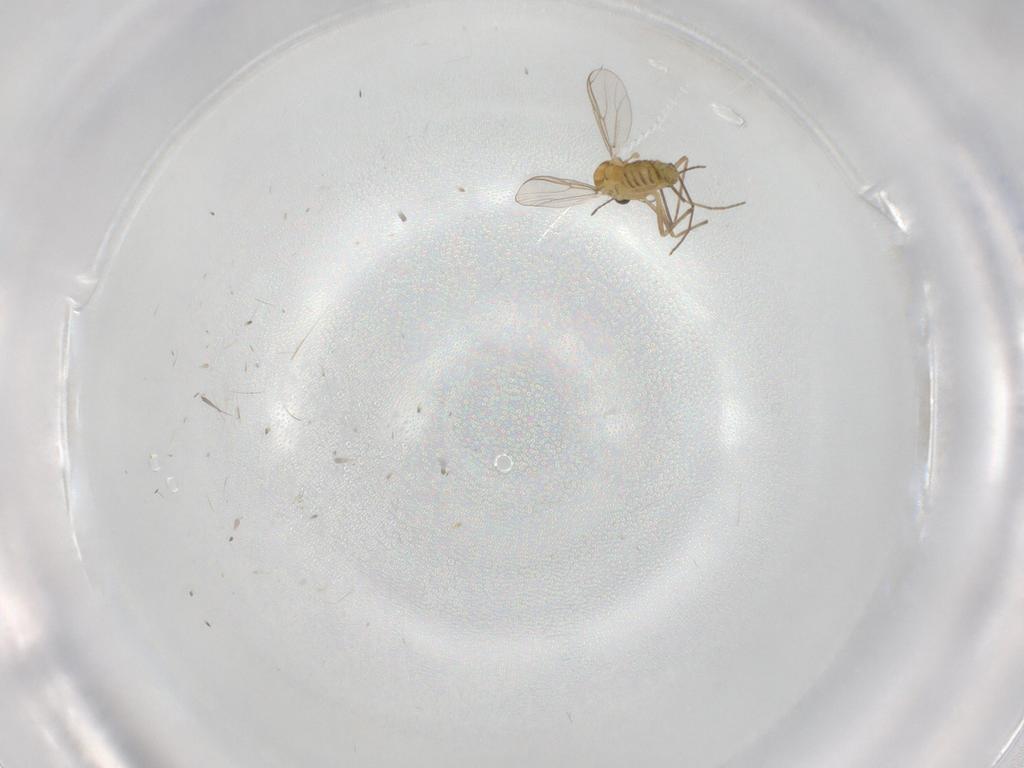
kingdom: Animalia
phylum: Arthropoda
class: Insecta
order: Diptera
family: Chironomidae
